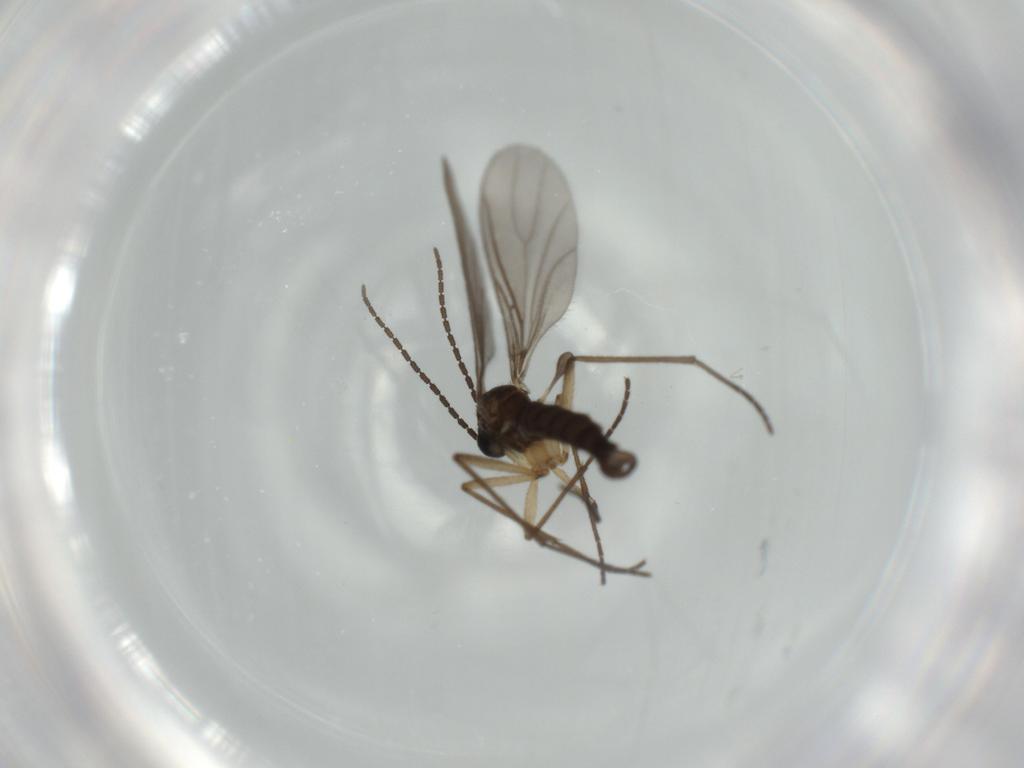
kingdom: Animalia
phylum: Arthropoda
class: Insecta
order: Diptera
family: Sciaridae
